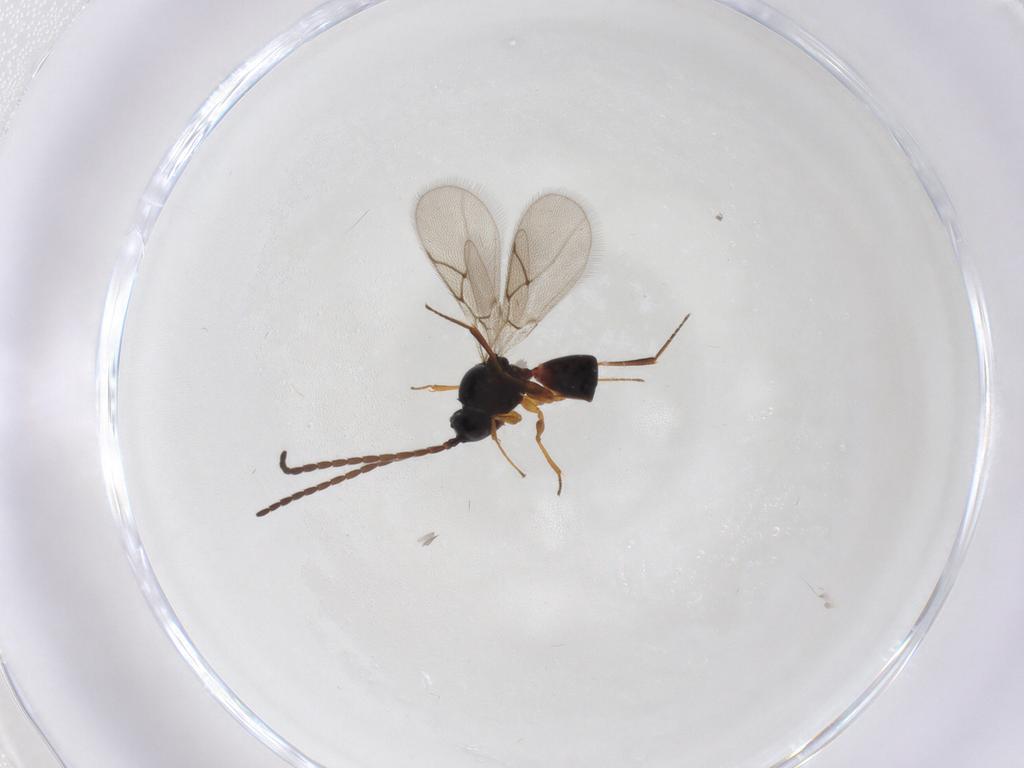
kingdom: Animalia
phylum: Arthropoda
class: Insecta
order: Hymenoptera
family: Figitidae
